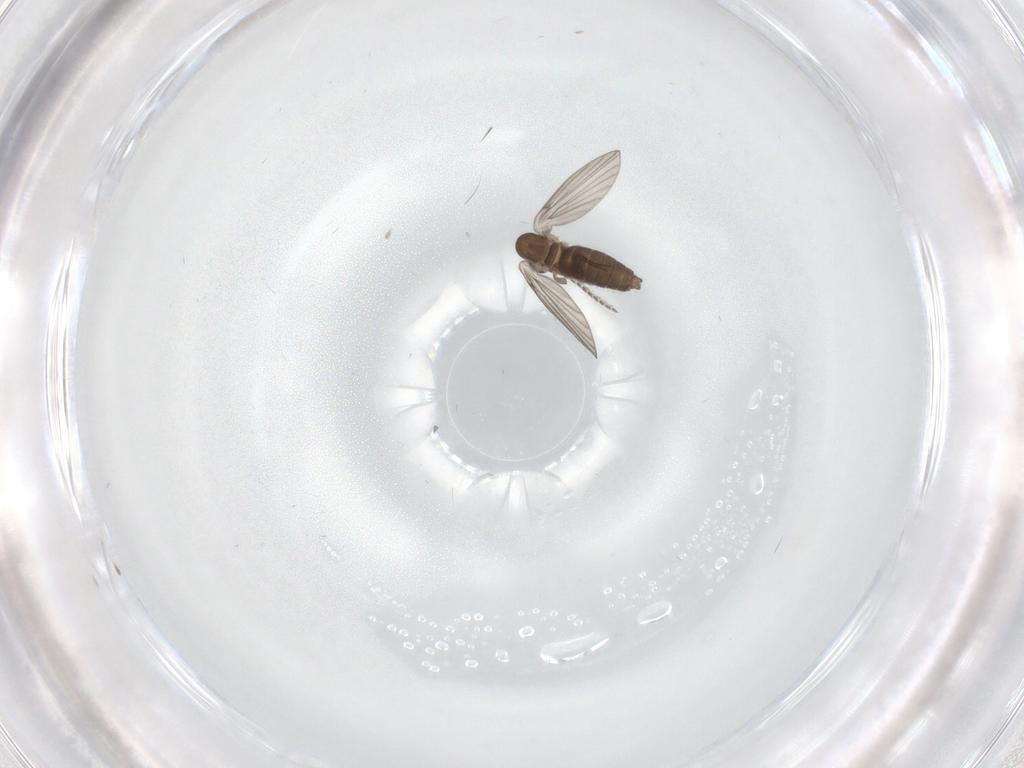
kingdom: Animalia
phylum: Arthropoda
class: Insecta
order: Diptera
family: Psychodidae
